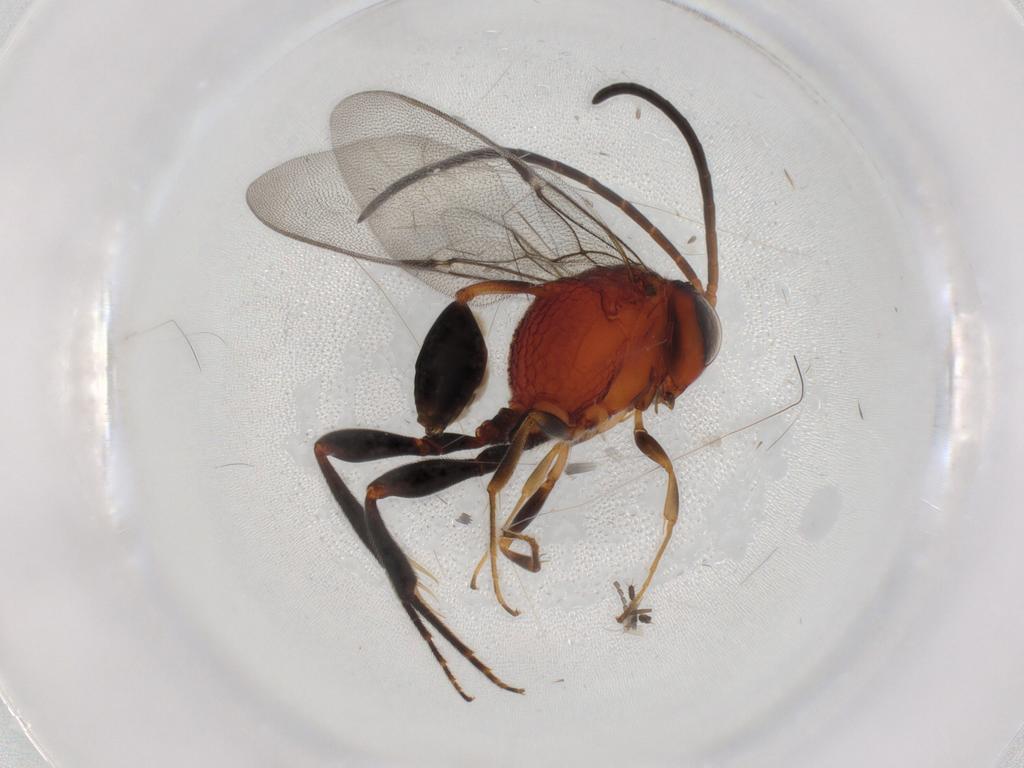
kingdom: Animalia
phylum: Arthropoda
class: Insecta
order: Hymenoptera
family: Evaniidae
